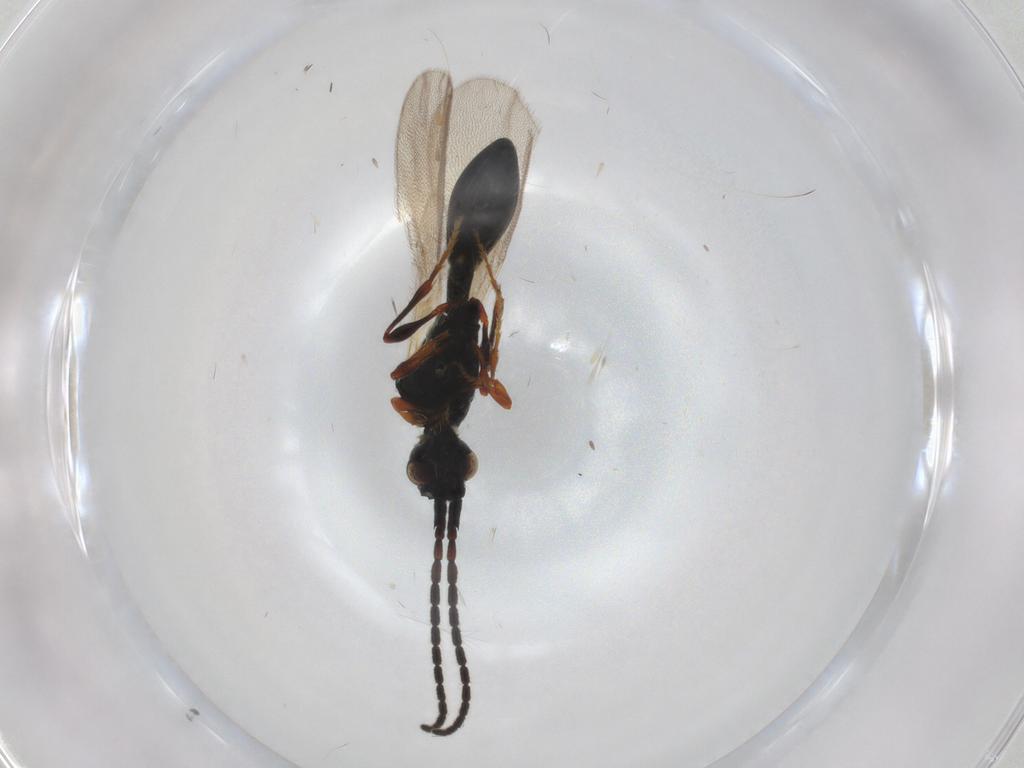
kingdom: Animalia
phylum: Arthropoda
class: Insecta
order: Hymenoptera
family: Diapriidae
